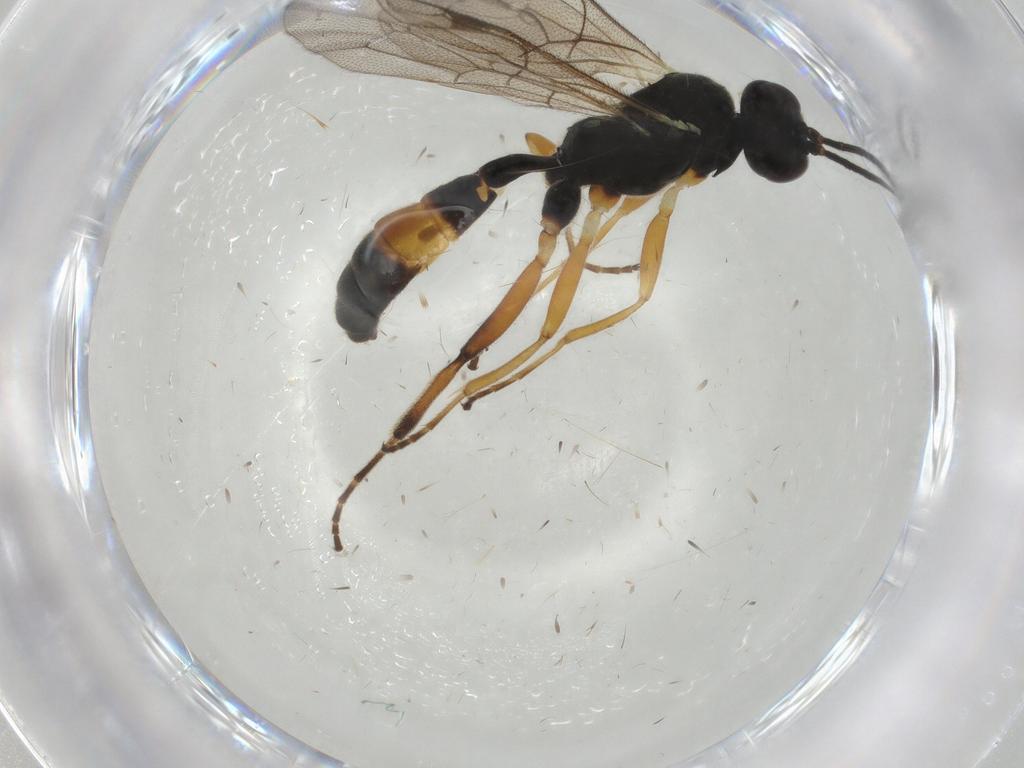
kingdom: Animalia
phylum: Arthropoda
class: Insecta
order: Hymenoptera
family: Ichneumonidae
